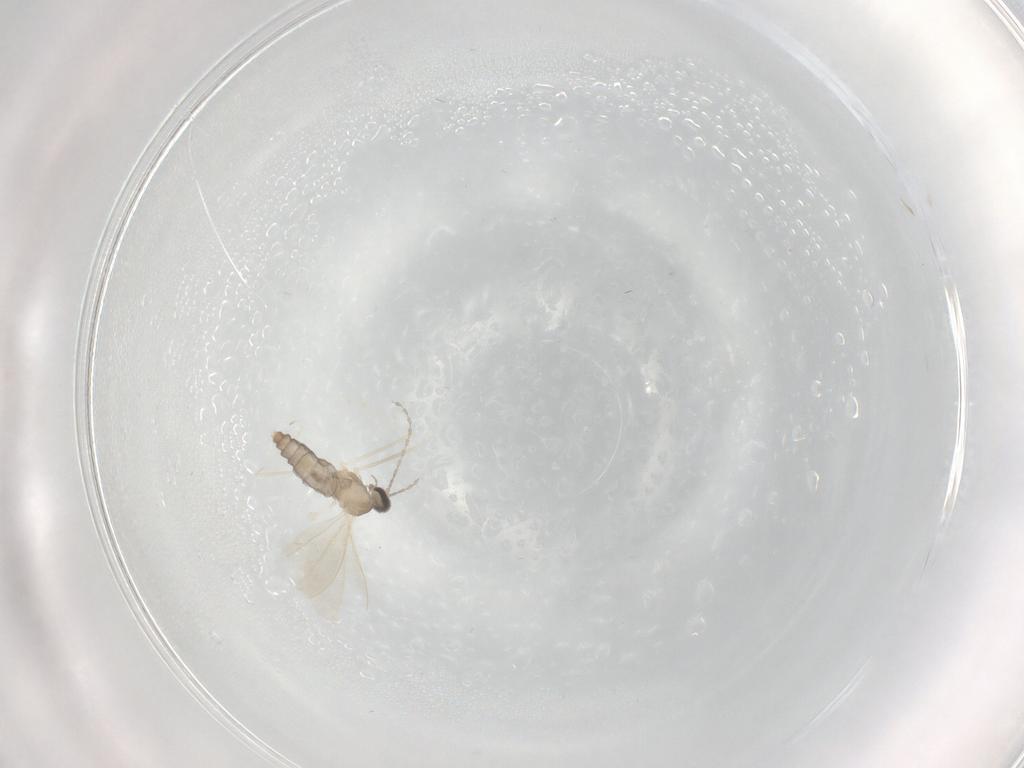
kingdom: Animalia
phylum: Arthropoda
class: Insecta
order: Diptera
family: Cecidomyiidae
